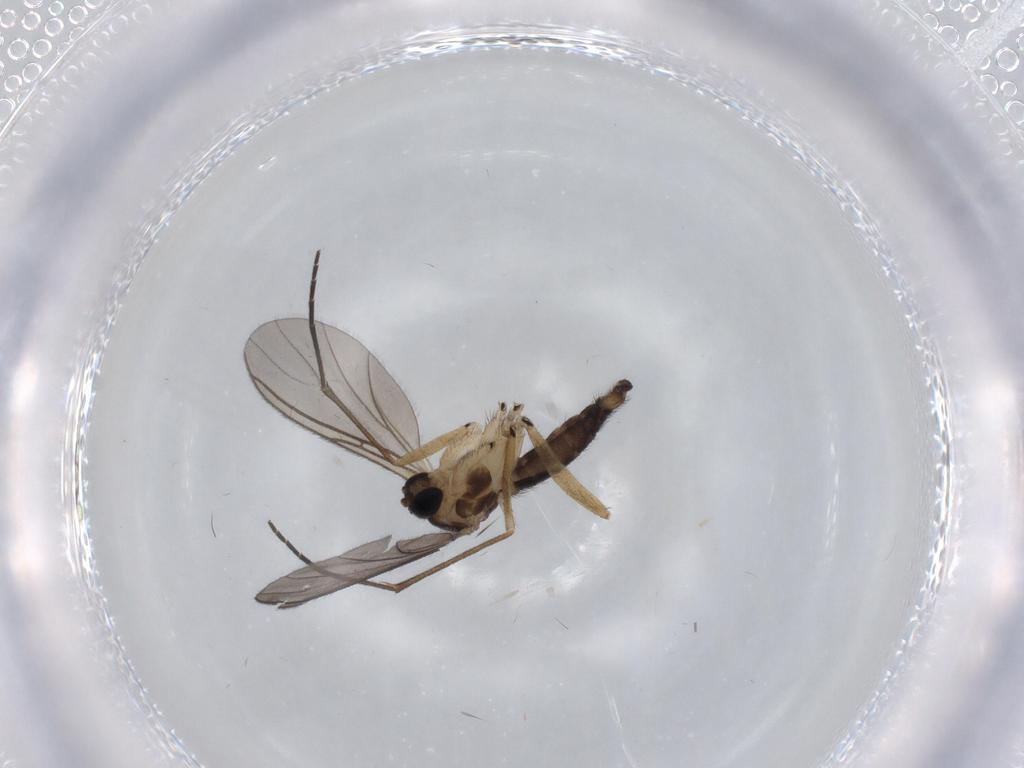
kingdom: Animalia
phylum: Arthropoda
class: Insecta
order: Diptera
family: Sciaridae
